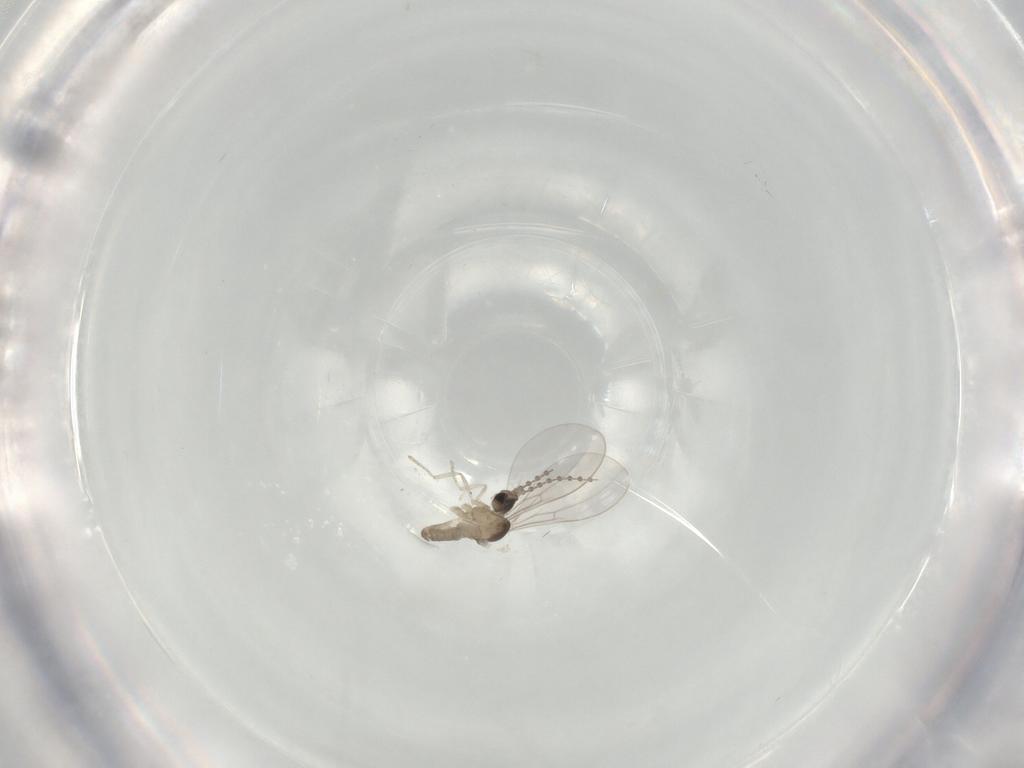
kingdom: Animalia
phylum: Arthropoda
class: Insecta
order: Diptera
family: Cecidomyiidae
